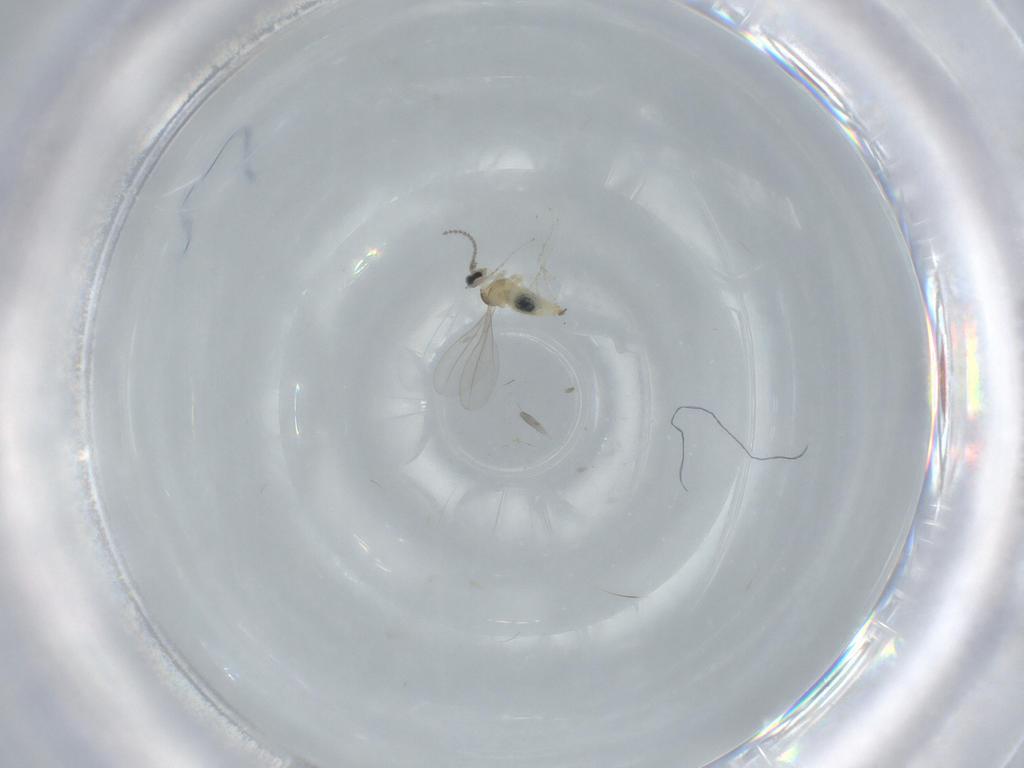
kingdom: Animalia
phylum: Arthropoda
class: Insecta
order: Diptera
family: Cecidomyiidae
